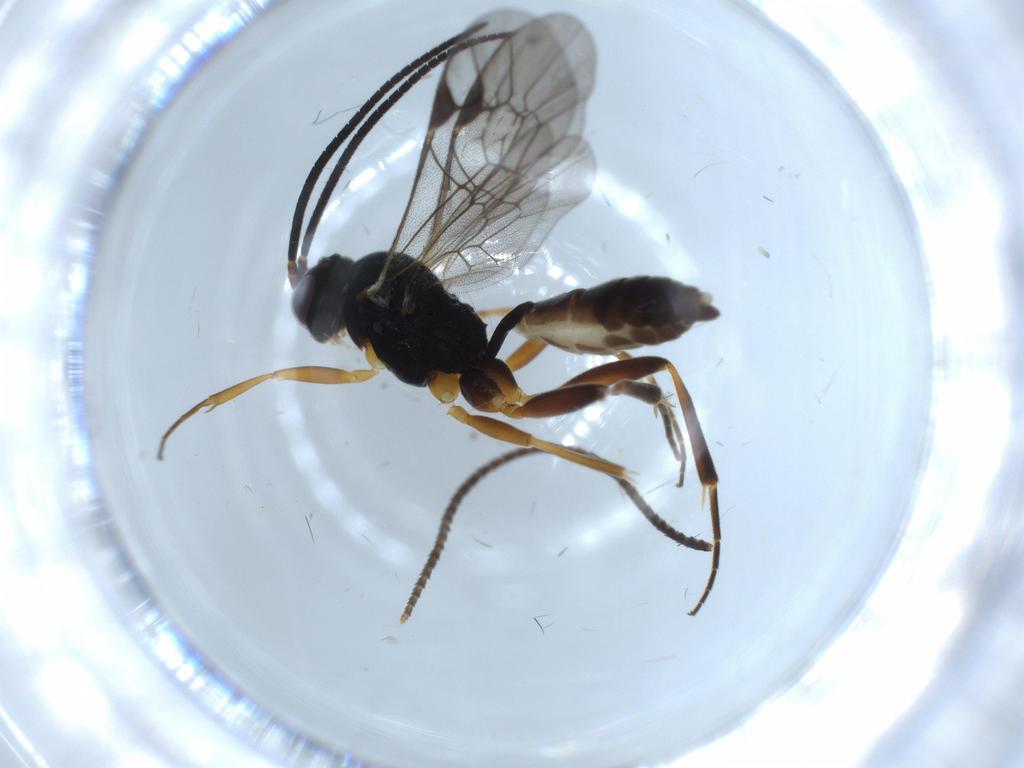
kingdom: Animalia
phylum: Arthropoda
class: Insecta
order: Hymenoptera
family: Ichneumonidae
